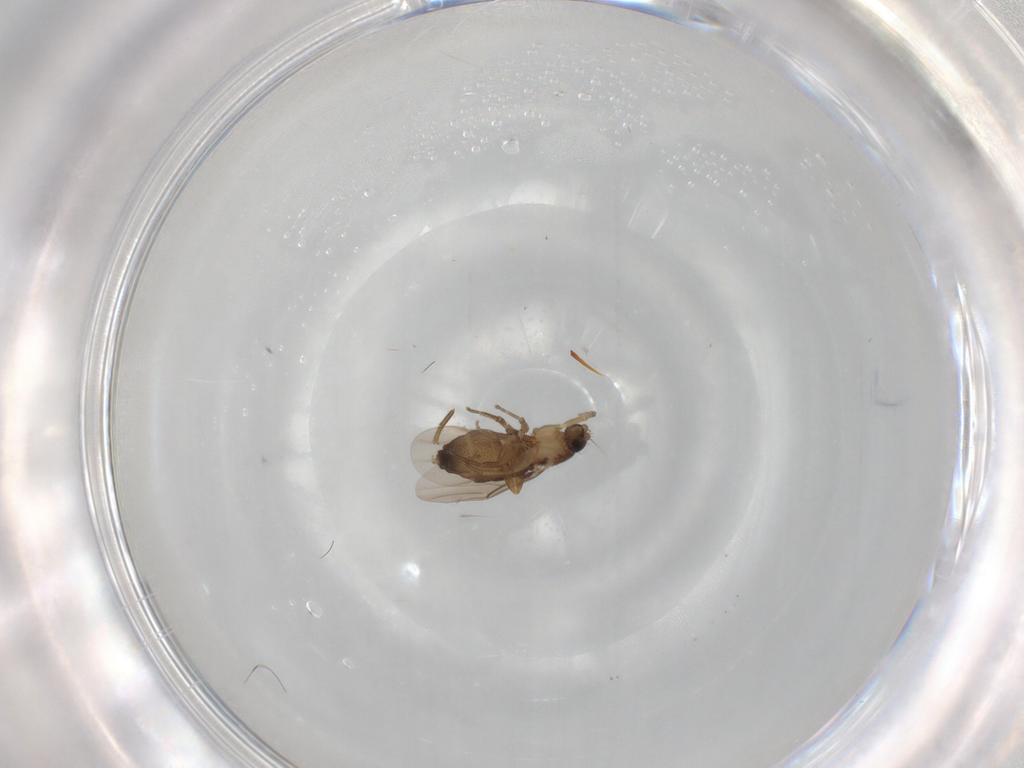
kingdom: Animalia
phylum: Arthropoda
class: Insecta
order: Diptera
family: Phoridae
